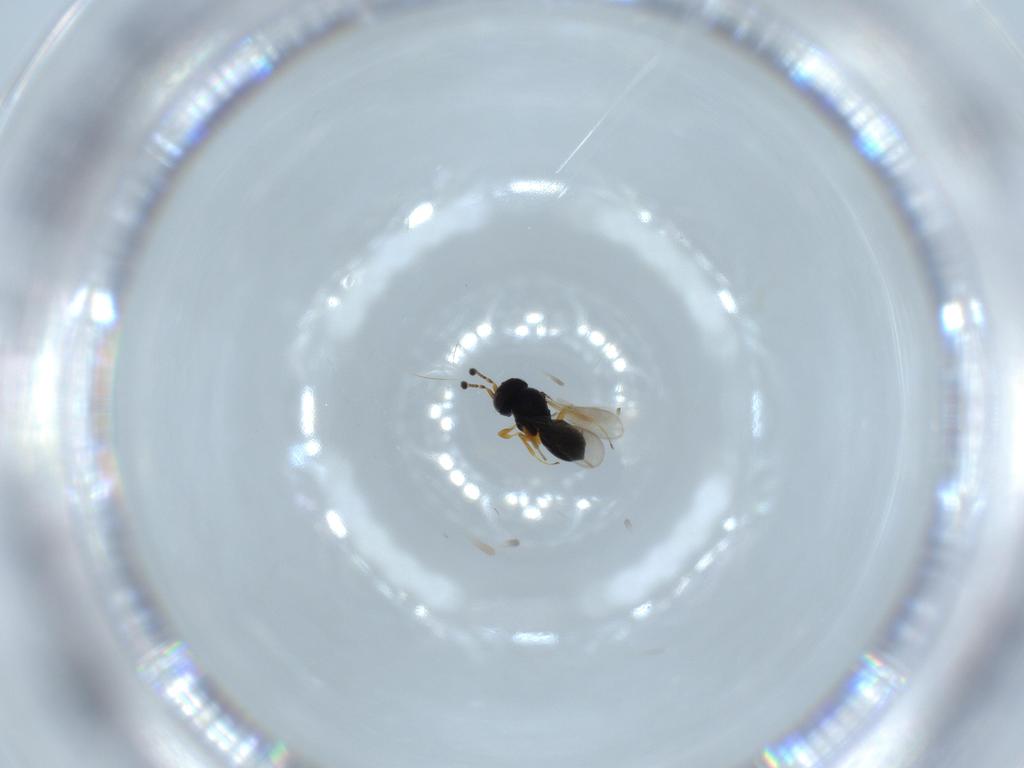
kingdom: Animalia
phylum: Arthropoda
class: Insecta
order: Hymenoptera
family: Scelionidae
